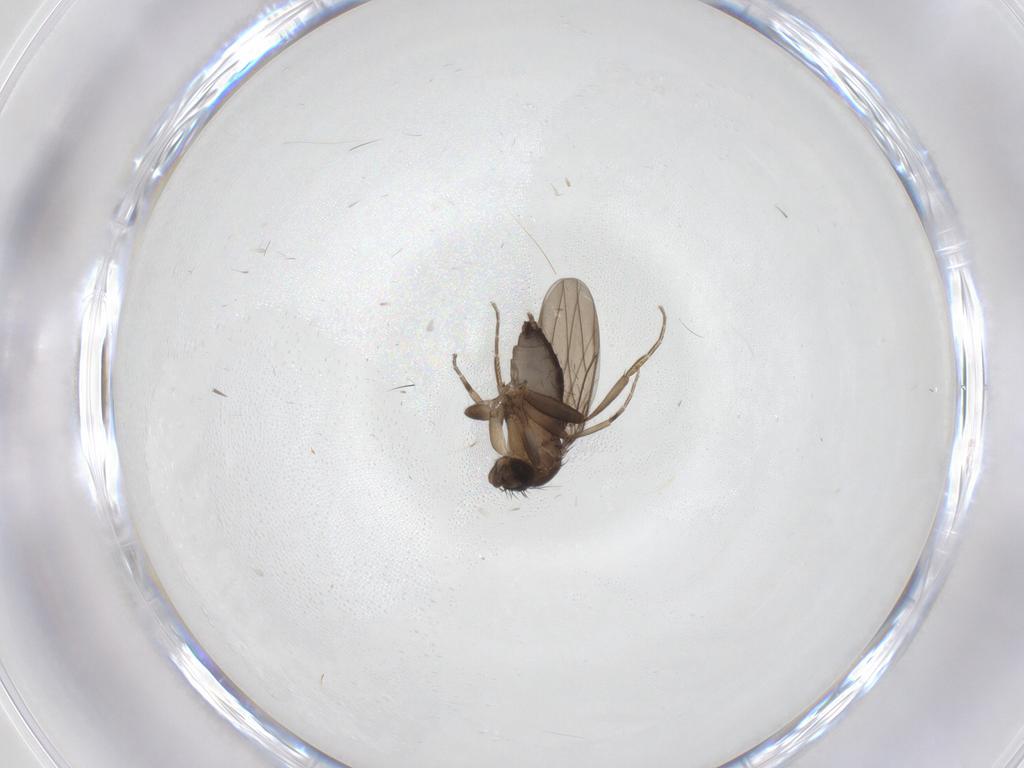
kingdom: Animalia
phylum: Arthropoda
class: Insecta
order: Diptera
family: Phoridae
